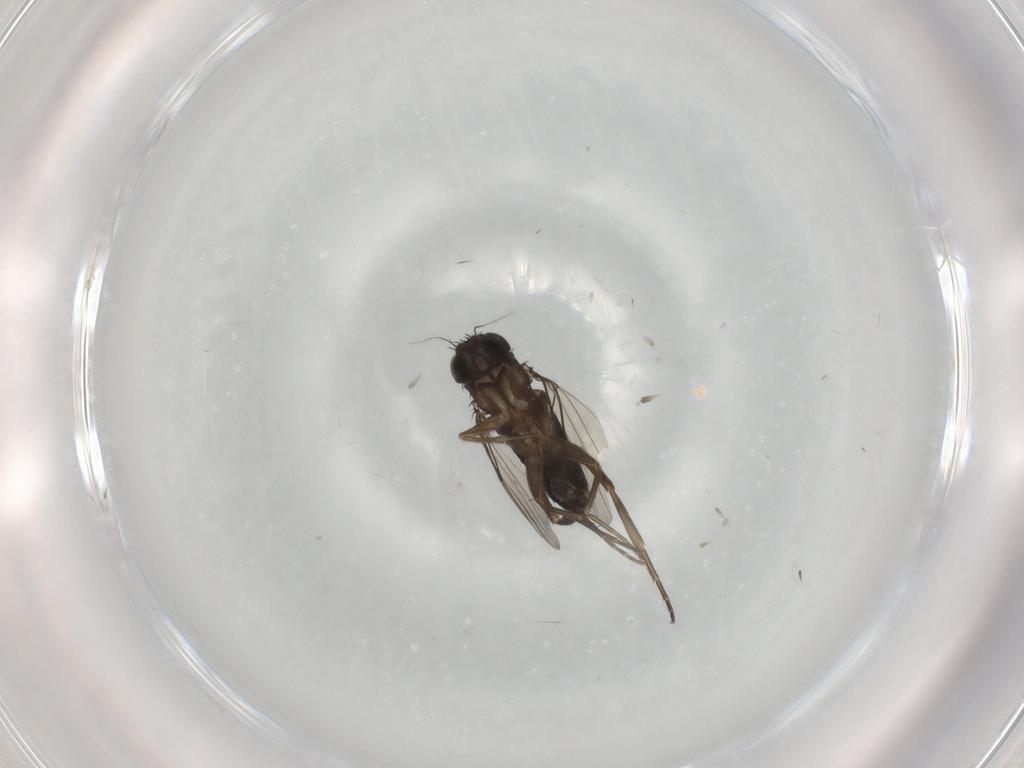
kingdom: Animalia
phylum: Arthropoda
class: Insecta
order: Diptera
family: Phoridae
